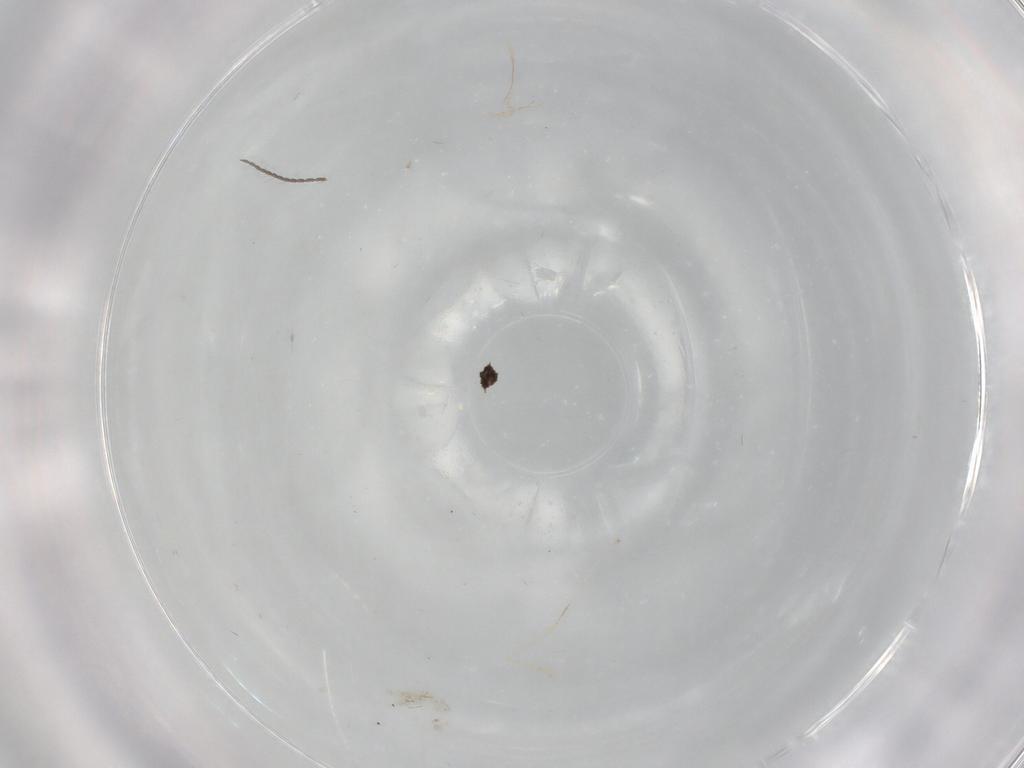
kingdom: Animalia
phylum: Arthropoda
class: Insecta
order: Diptera
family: Cecidomyiidae
